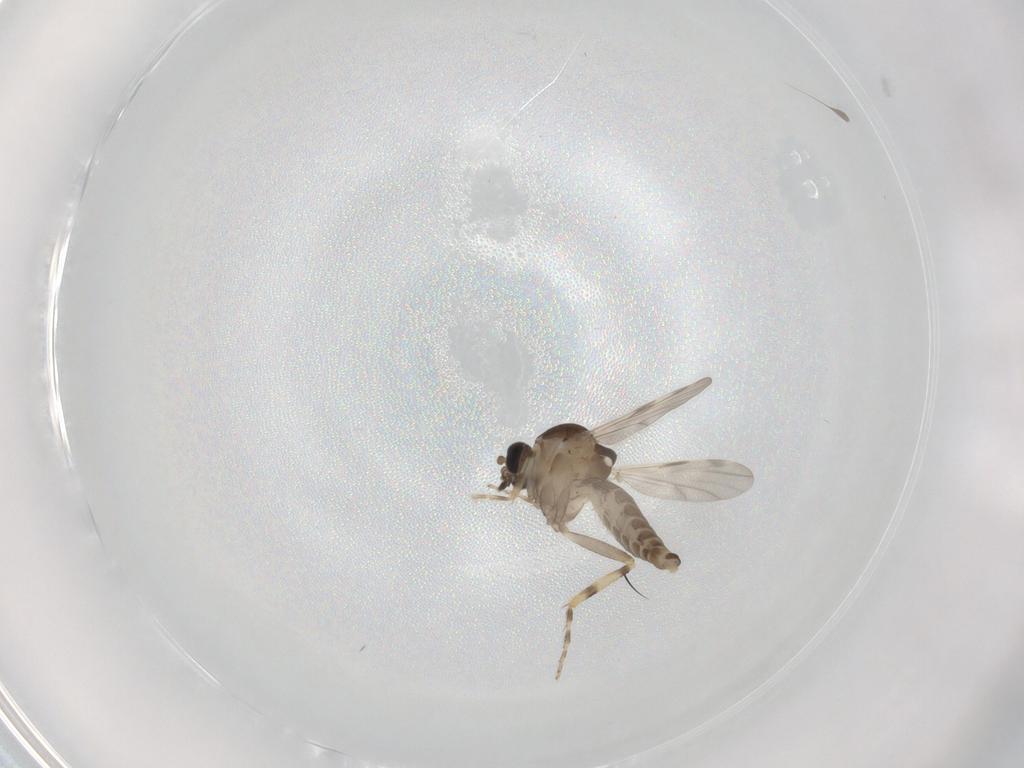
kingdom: Animalia
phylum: Arthropoda
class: Insecta
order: Diptera
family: Ceratopogonidae
